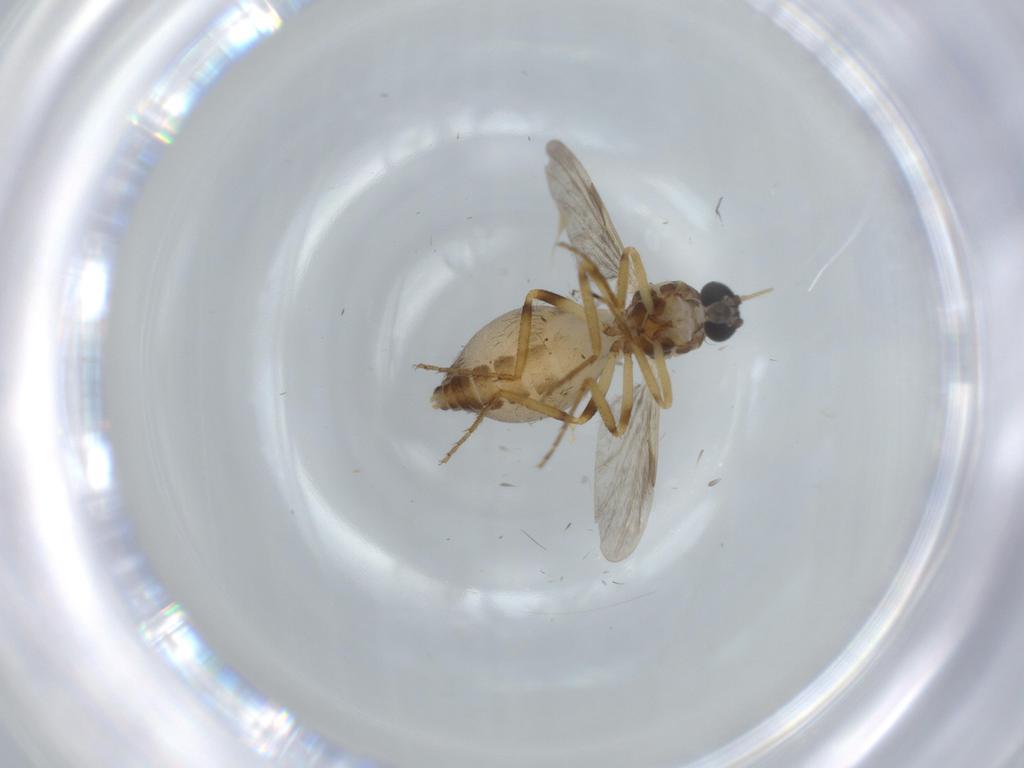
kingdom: Animalia
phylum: Arthropoda
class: Insecta
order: Diptera
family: Ceratopogonidae
